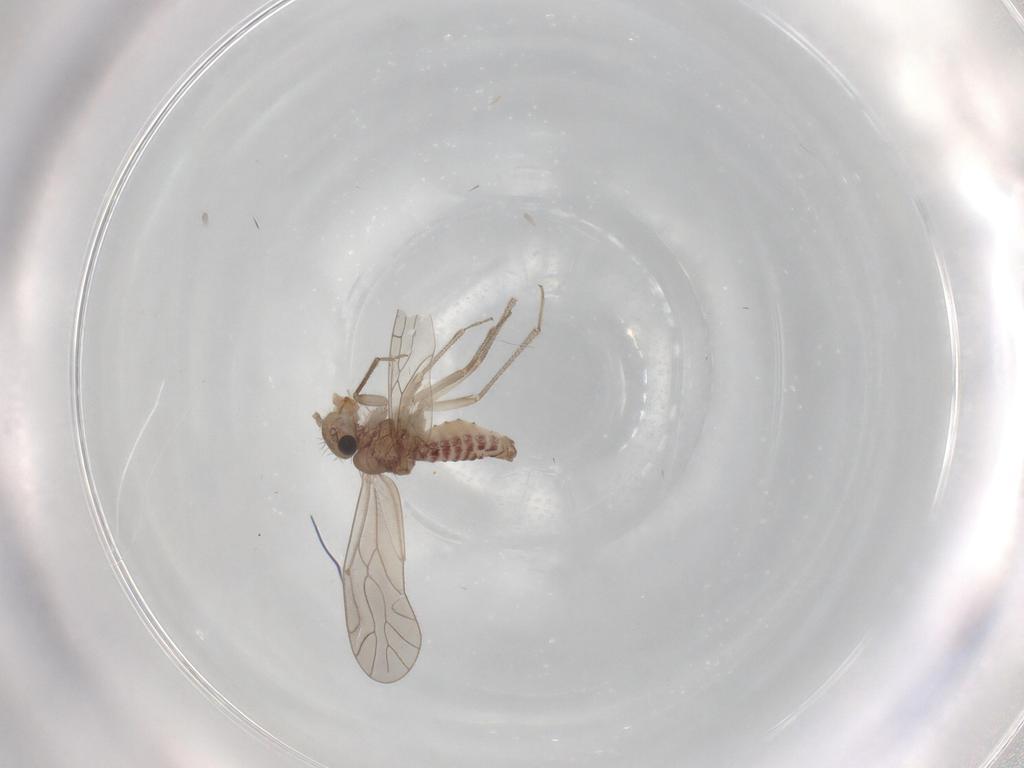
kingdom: Animalia
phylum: Arthropoda
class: Insecta
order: Psocodea
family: Caeciliusidae
